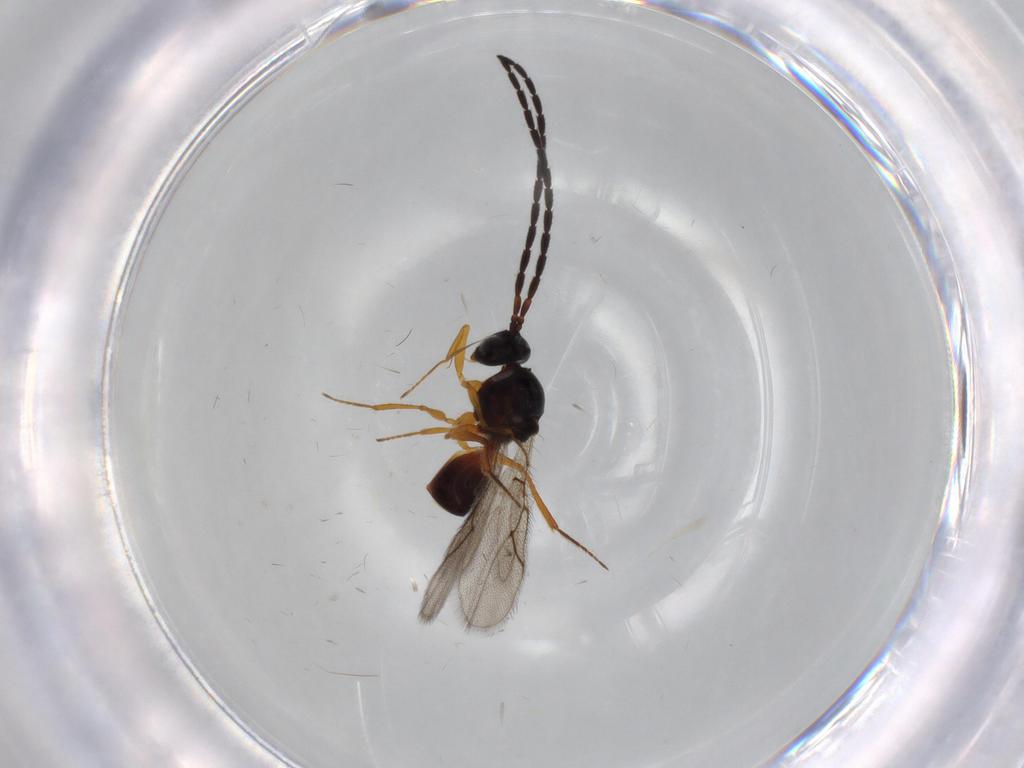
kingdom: Animalia
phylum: Arthropoda
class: Insecta
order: Hymenoptera
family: Figitidae
